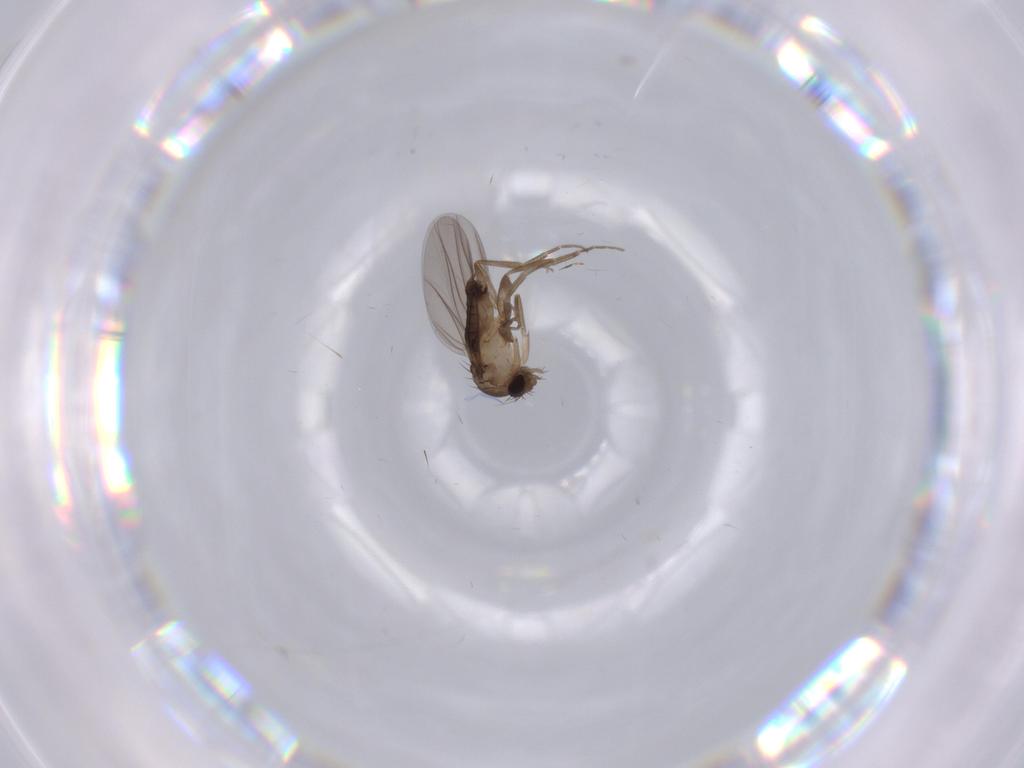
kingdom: Animalia
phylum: Arthropoda
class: Insecta
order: Diptera
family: Phoridae
